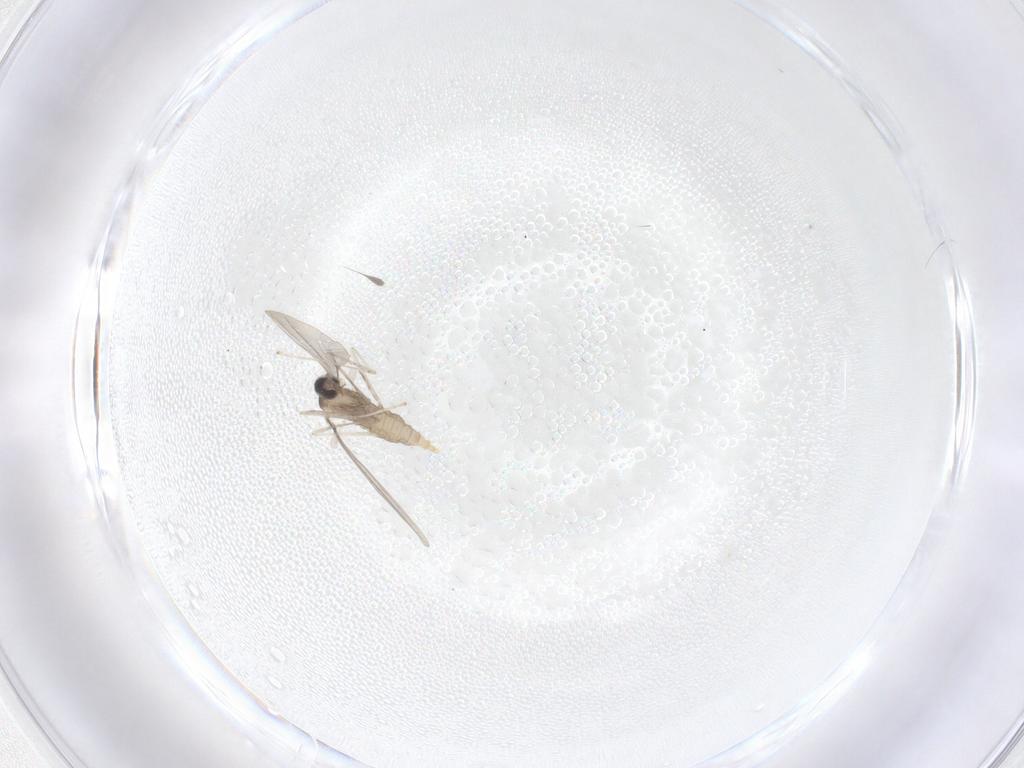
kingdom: Animalia
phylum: Arthropoda
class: Insecta
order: Diptera
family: Cecidomyiidae
